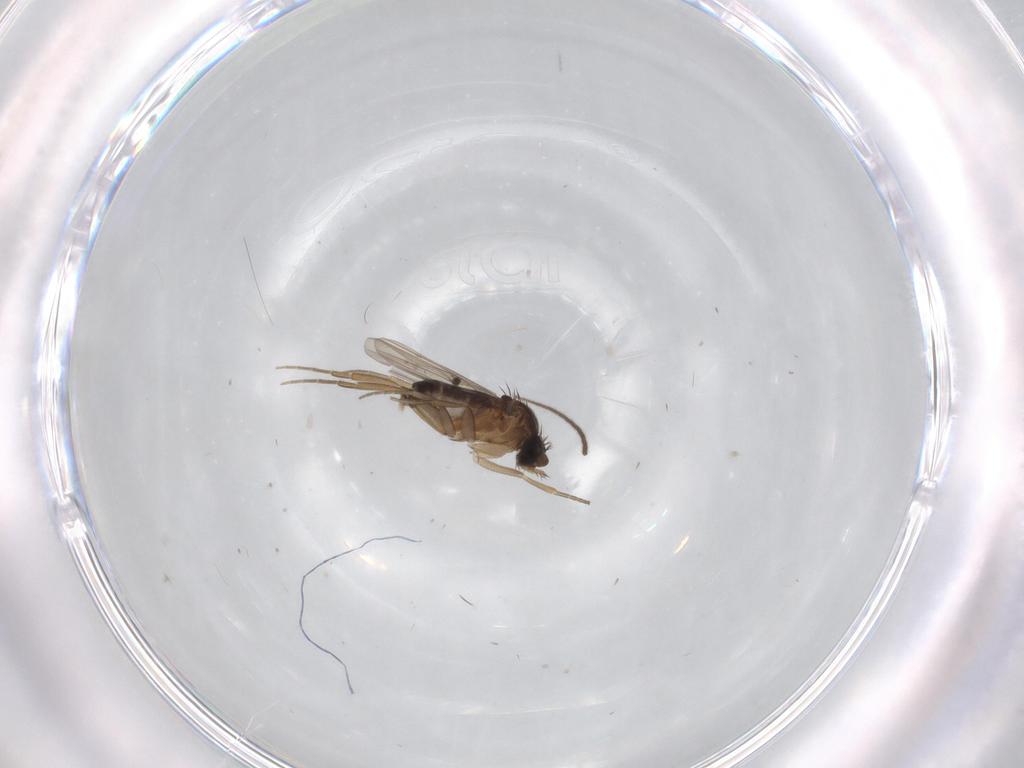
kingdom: Animalia
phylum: Arthropoda
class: Insecta
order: Diptera
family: Phoridae
